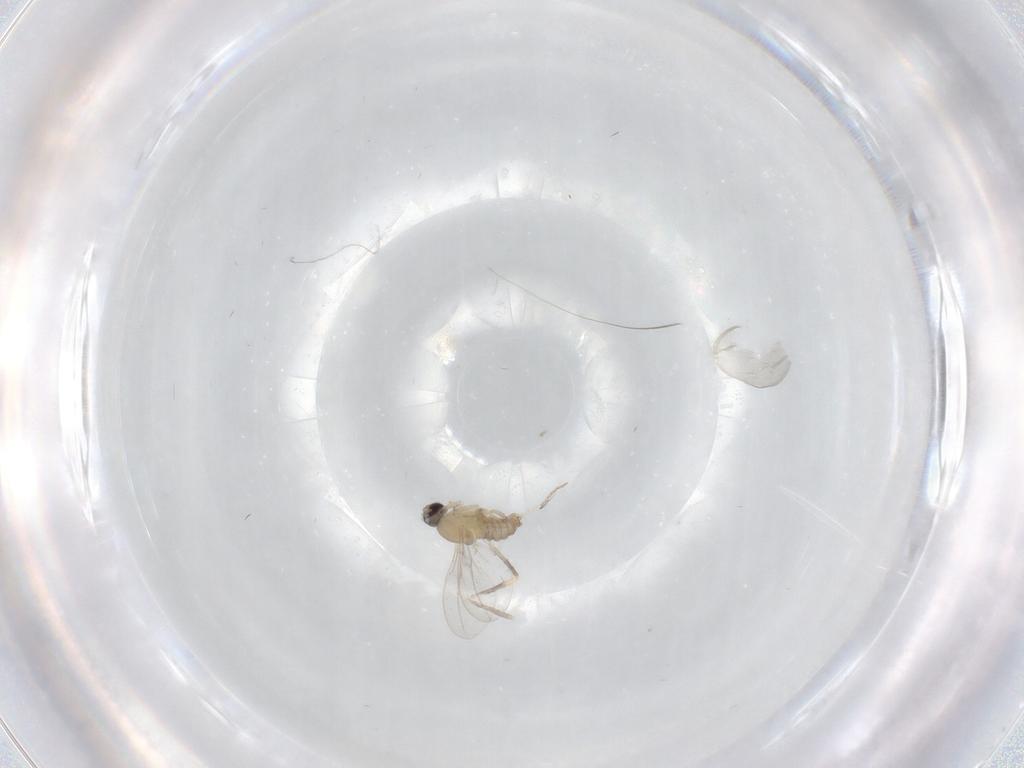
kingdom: Animalia
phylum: Arthropoda
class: Insecta
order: Diptera
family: Cecidomyiidae
